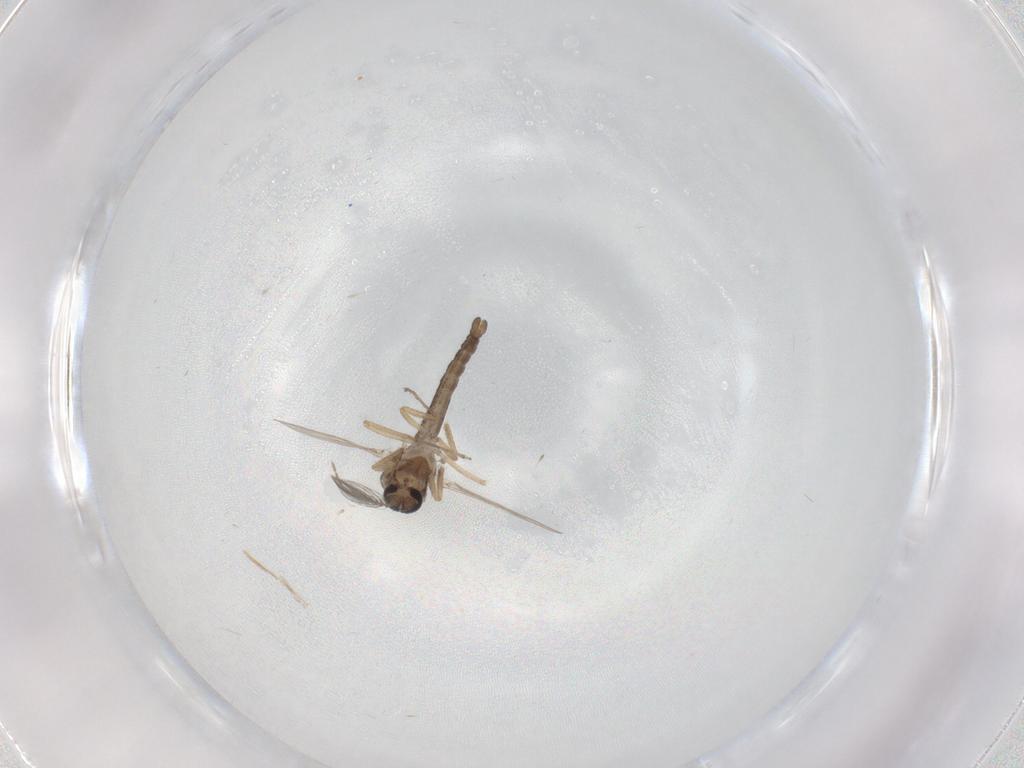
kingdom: Animalia
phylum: Arthropoda
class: Insecta
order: Diptera
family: Ceratopogonidae
